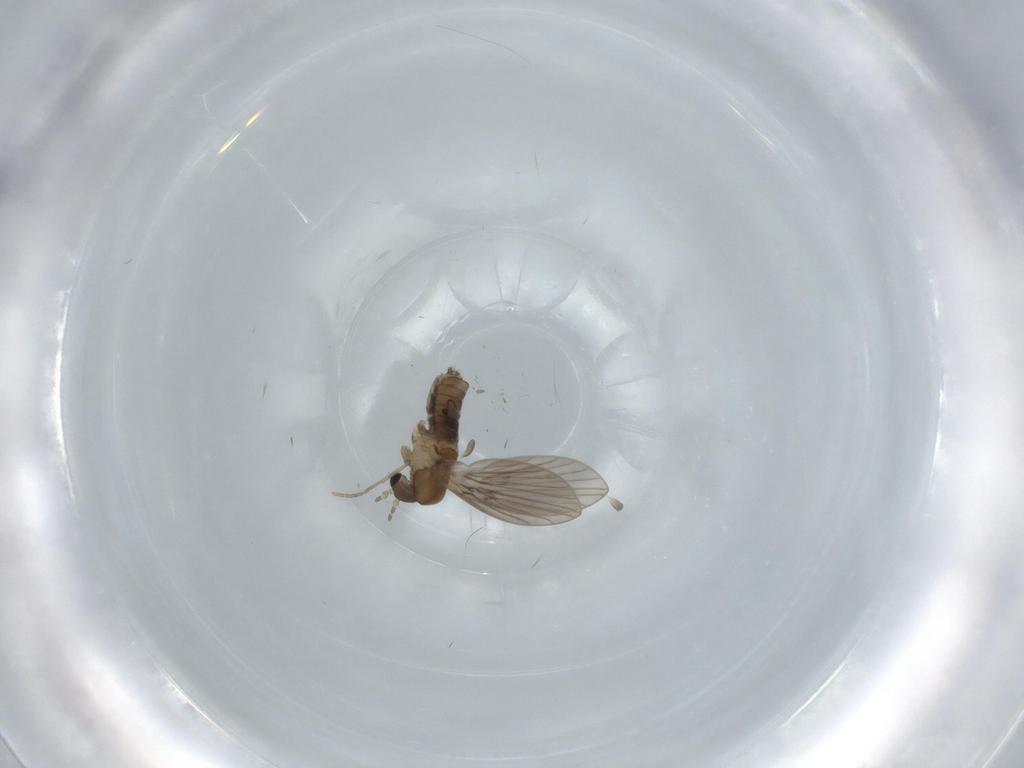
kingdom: Animalia
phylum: Arthropoda
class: Insecta
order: Diptera
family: Psychodidae
